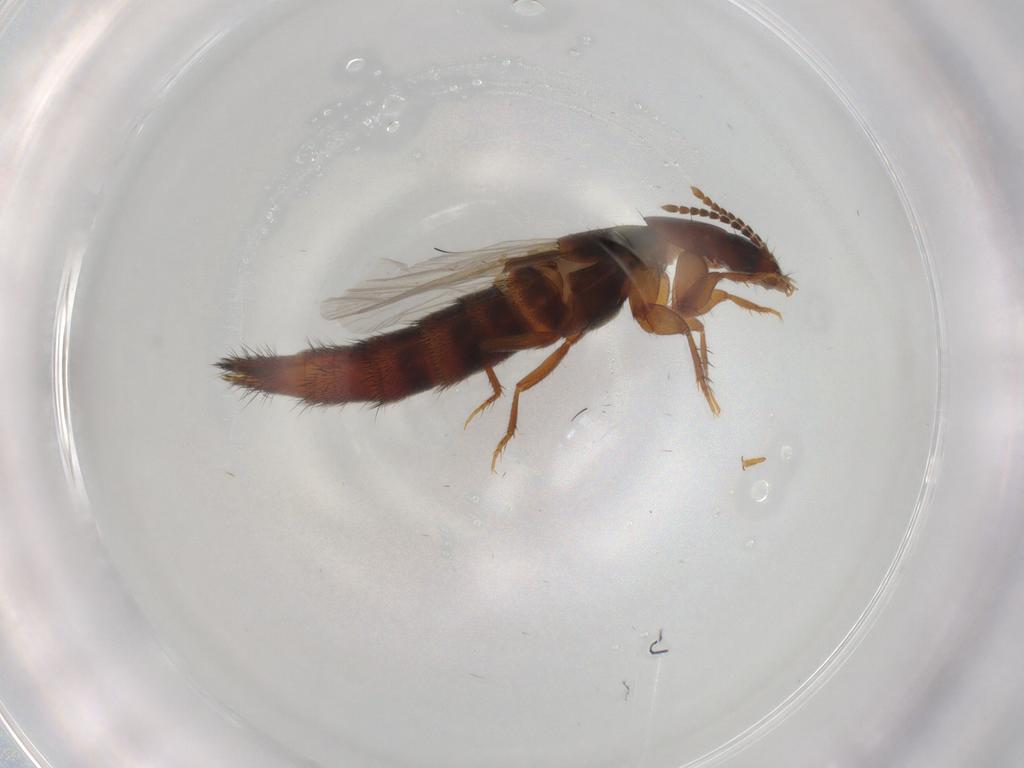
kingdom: Animalia
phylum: Arthropoda
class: Insecta
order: Coleoptera
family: Staphylinidae
